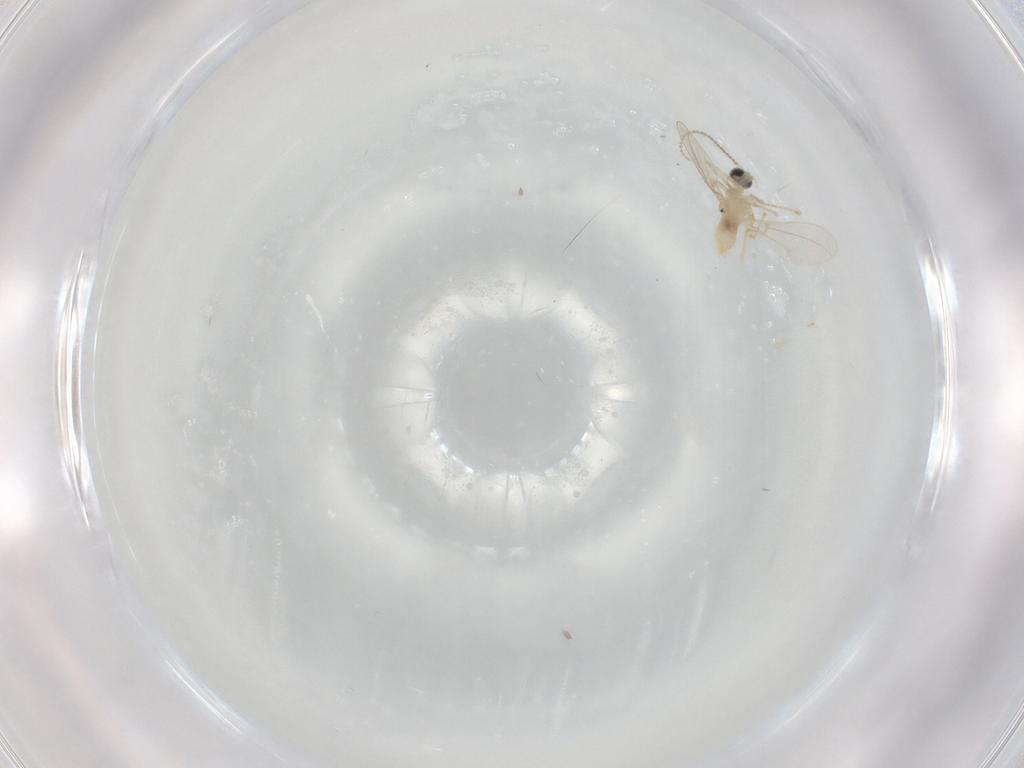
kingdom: Animalia
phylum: Arthropoda
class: Insecta
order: Diptera
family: Cecidomyiidae
